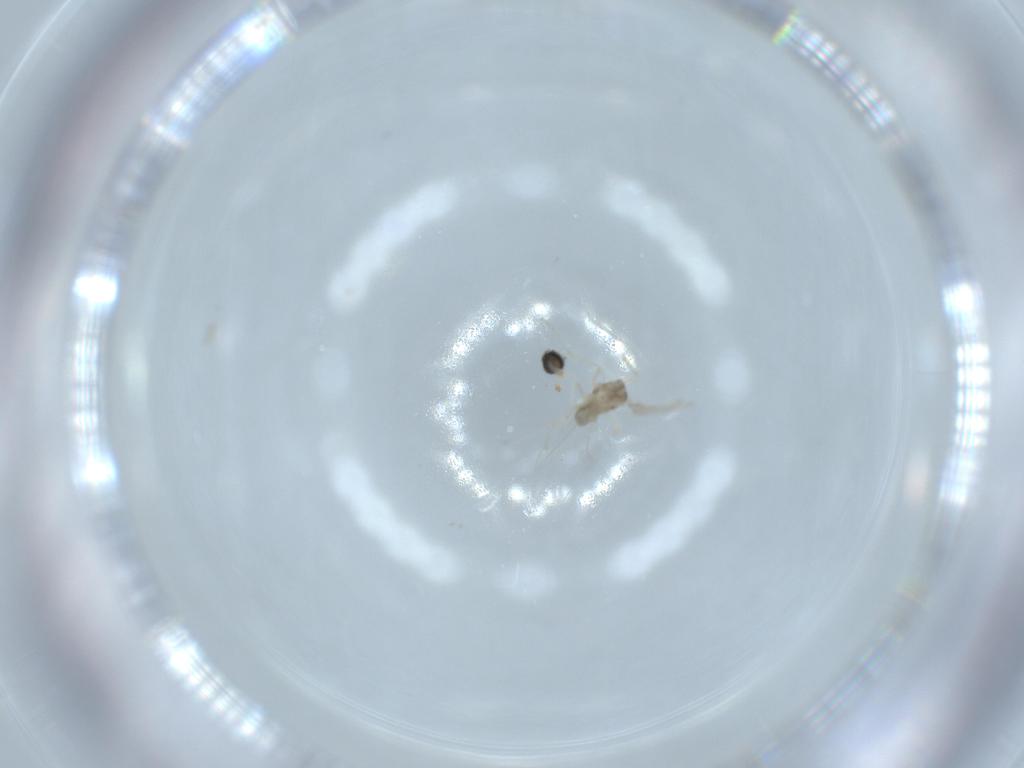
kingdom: Animalia
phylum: Arthropoda
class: Insecta
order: Diptera
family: Cecidomyiidae
